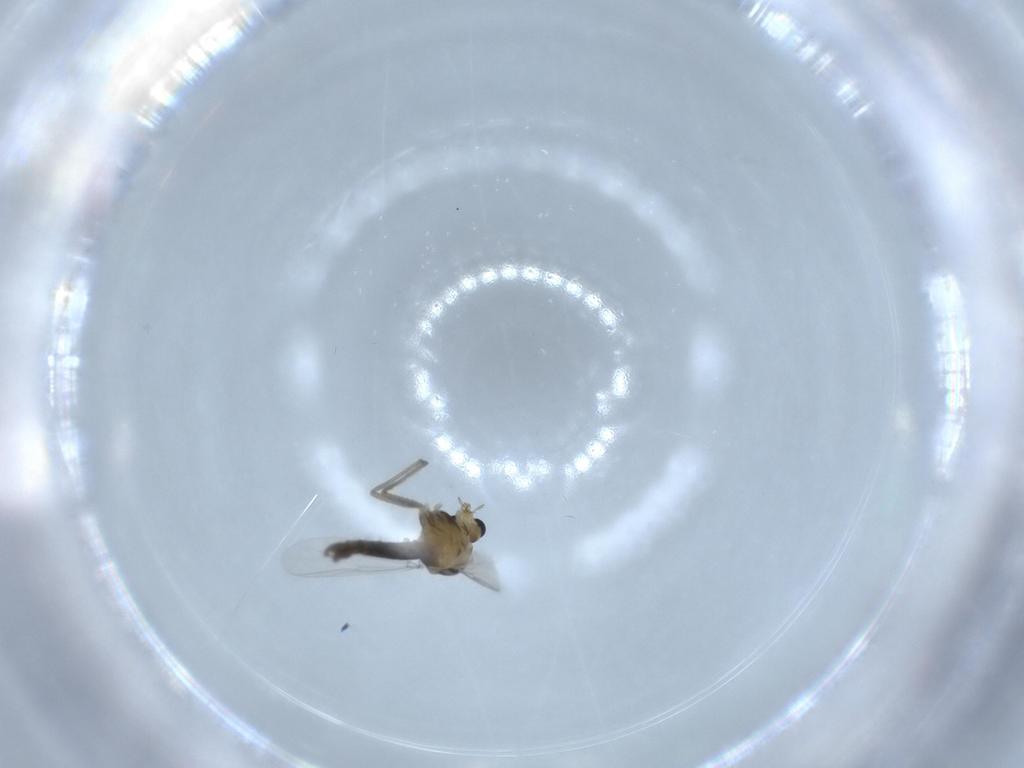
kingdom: Animalia
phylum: Arthropoda
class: Insecta
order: Diptera
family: Chironomidae
